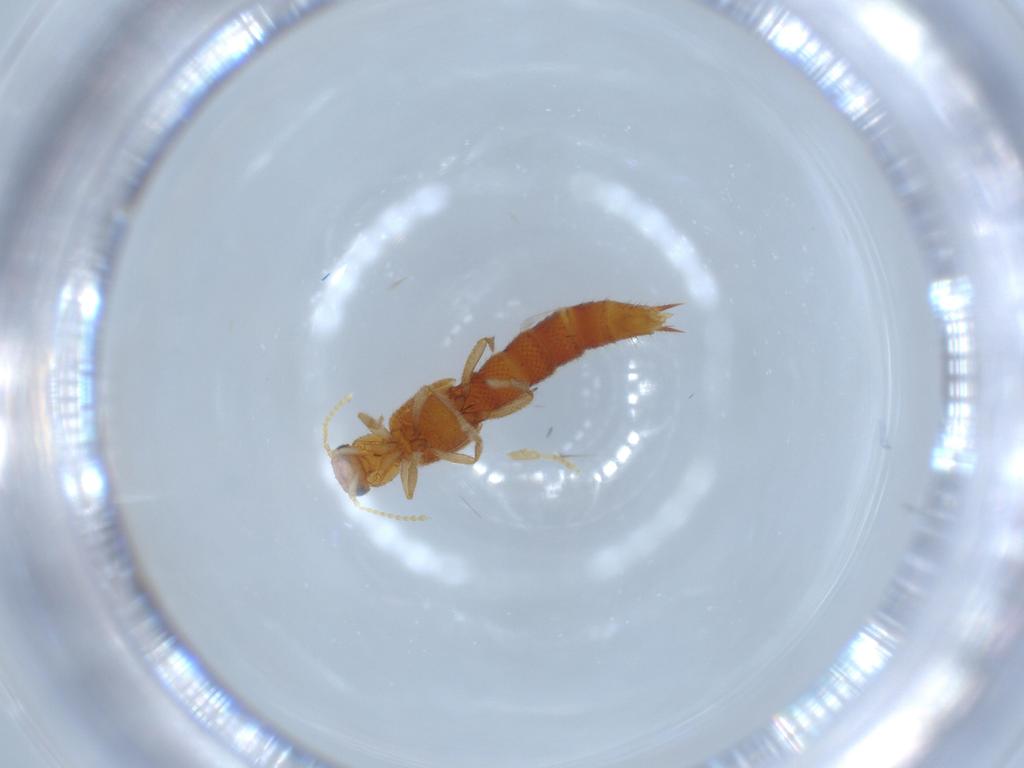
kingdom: Animalia
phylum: Arthropoda
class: Insecta
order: Coleoptera
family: Staphylinidae
